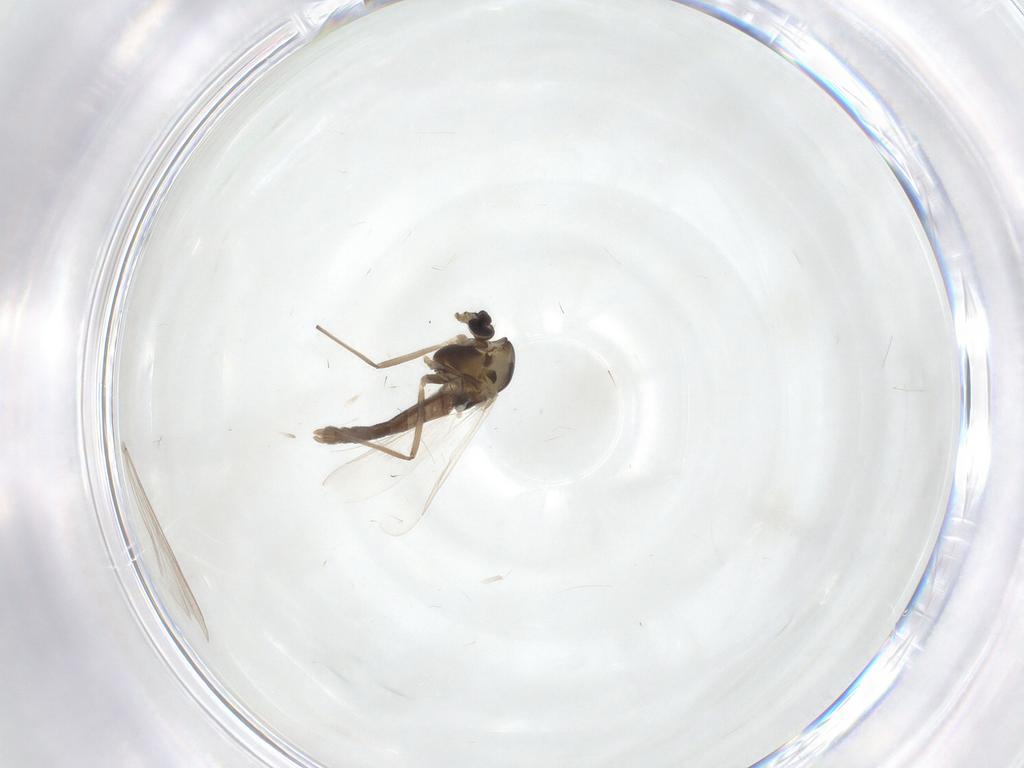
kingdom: Animalia
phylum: Arthropoda
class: Insecta
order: Diptera
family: Chironomidae
